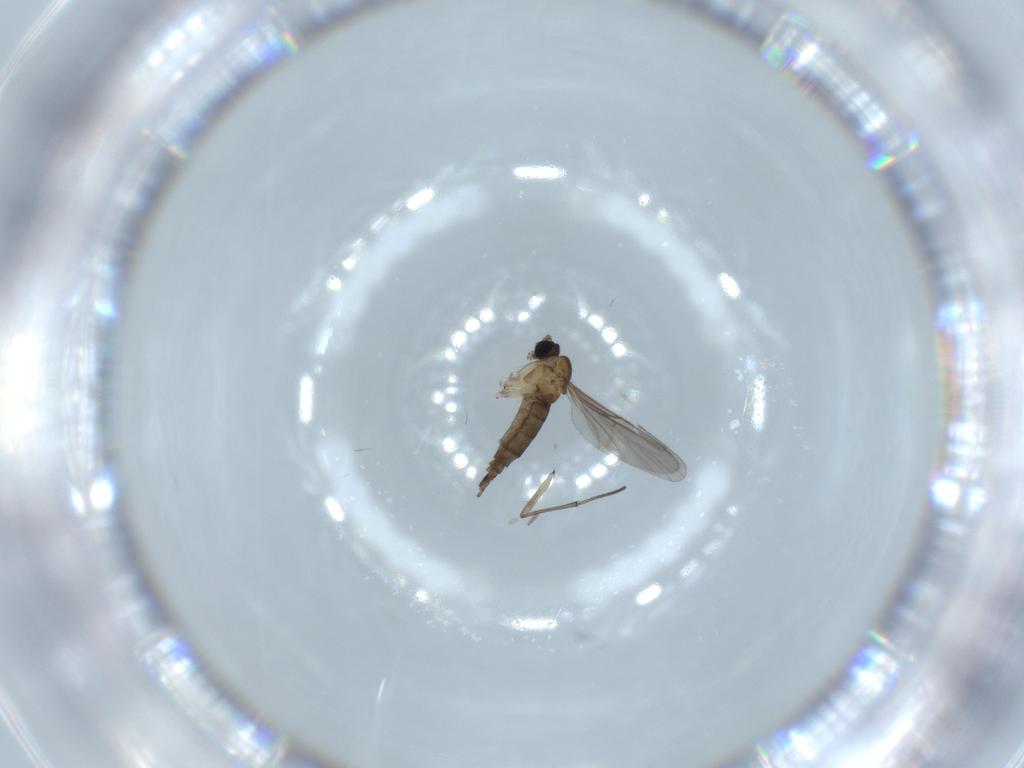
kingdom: Animalia
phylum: Arthropoda
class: Insecta
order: Diptera
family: Sciaridae
